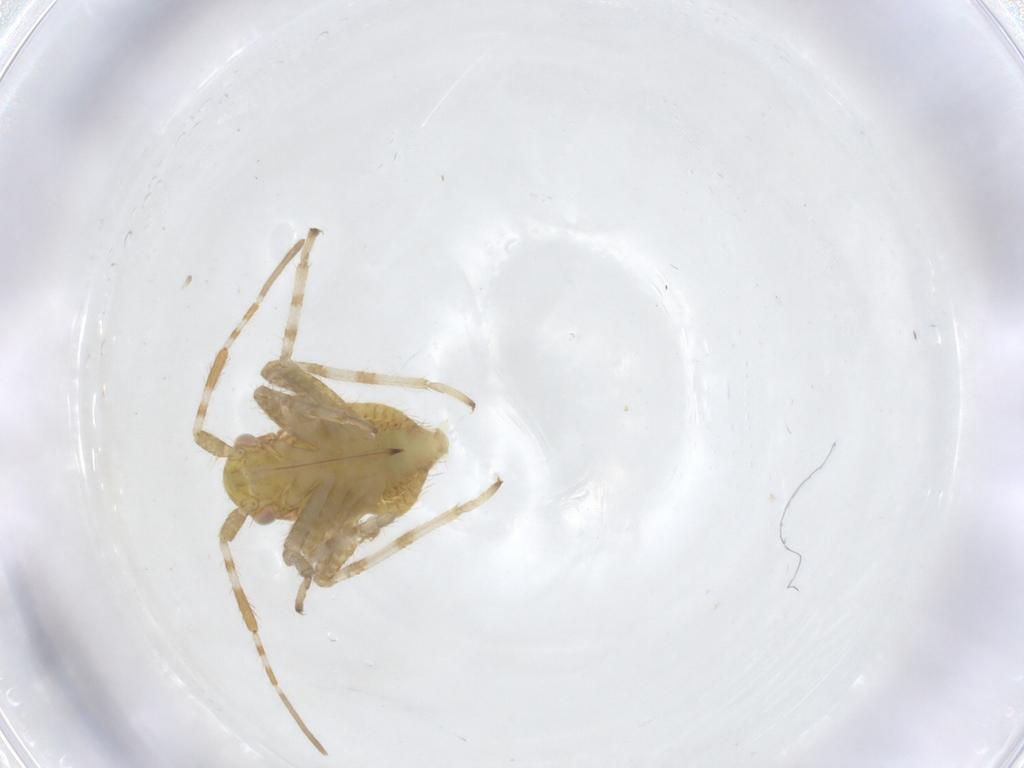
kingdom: Animalia
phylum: Arthropoda
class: Insecta
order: Hemiptera
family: Miridae
